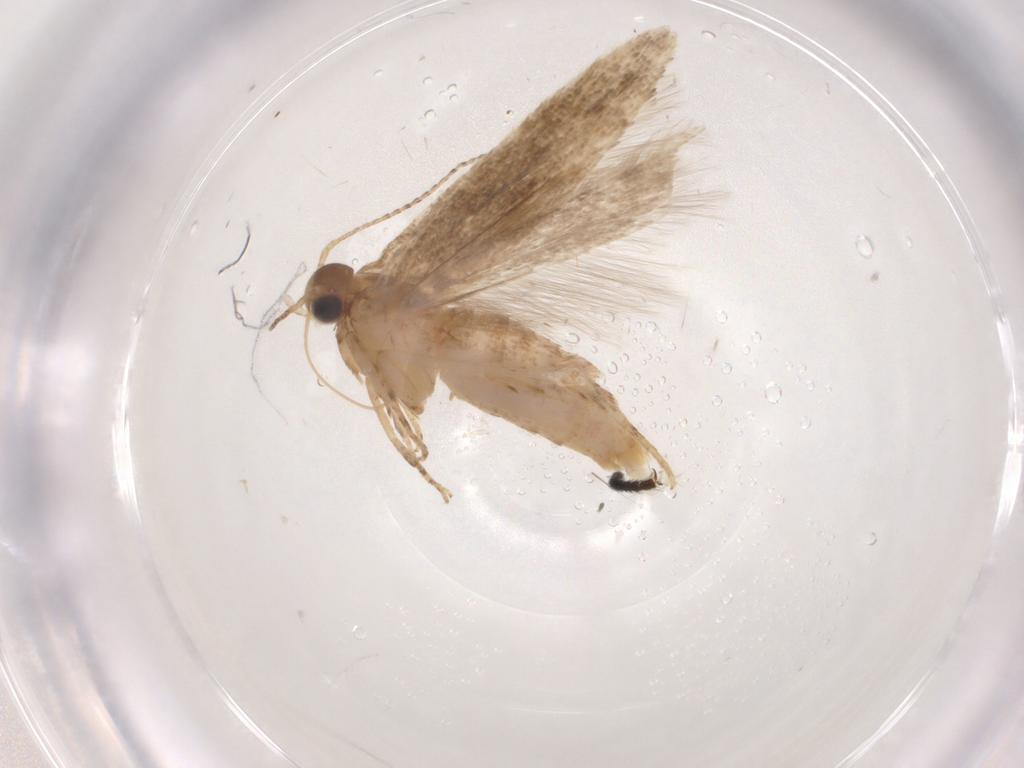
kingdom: Animalia
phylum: Arthropoda
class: Insecta
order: Lepidoptera
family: Gelechiidae
